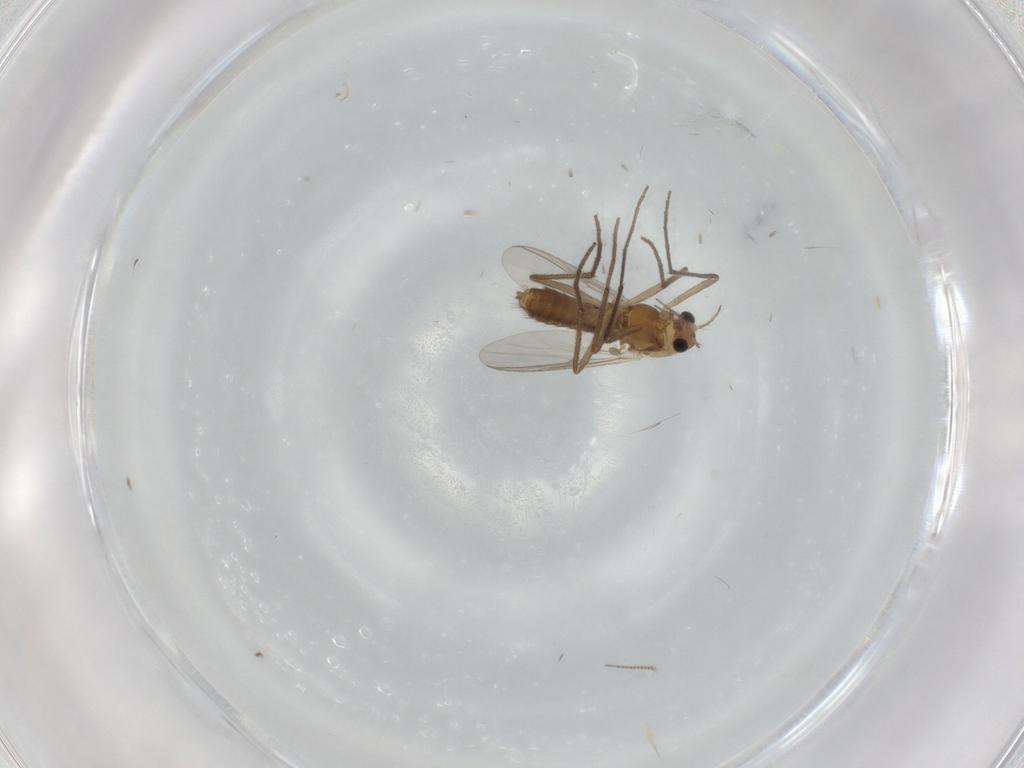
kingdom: Animalia
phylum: Arthropoda
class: Insecta
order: Diptera
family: Chironomidae
